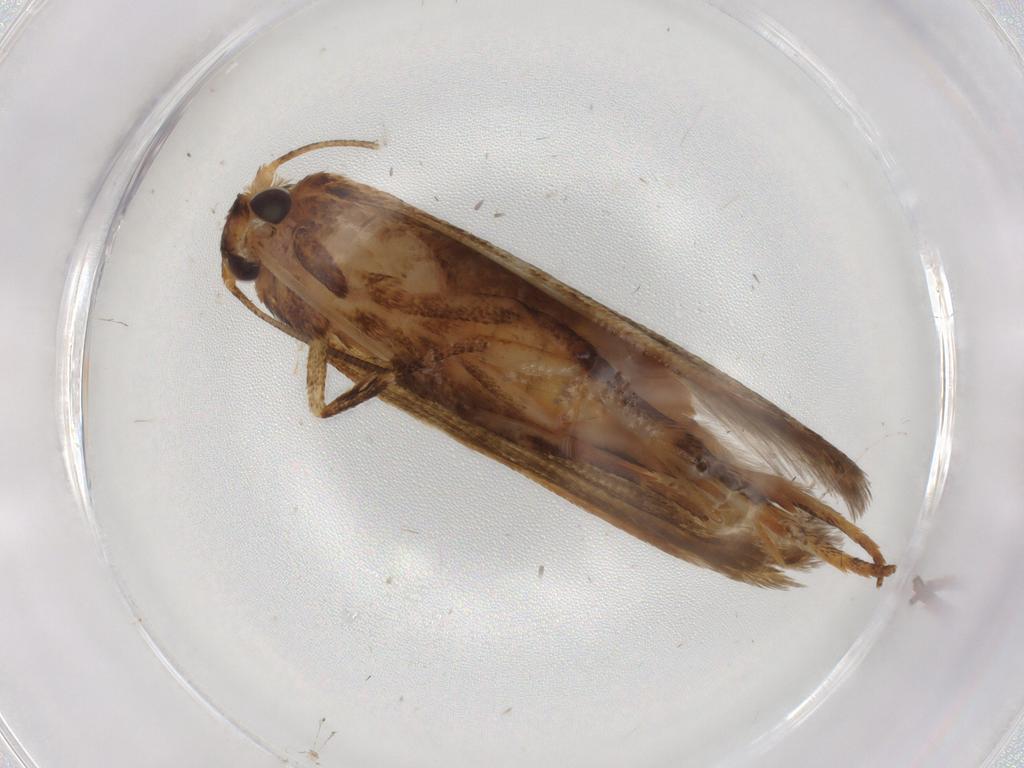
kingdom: Animalia
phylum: Arthropoda
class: Insecta
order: Lepidoptera
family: Blastobasidae
